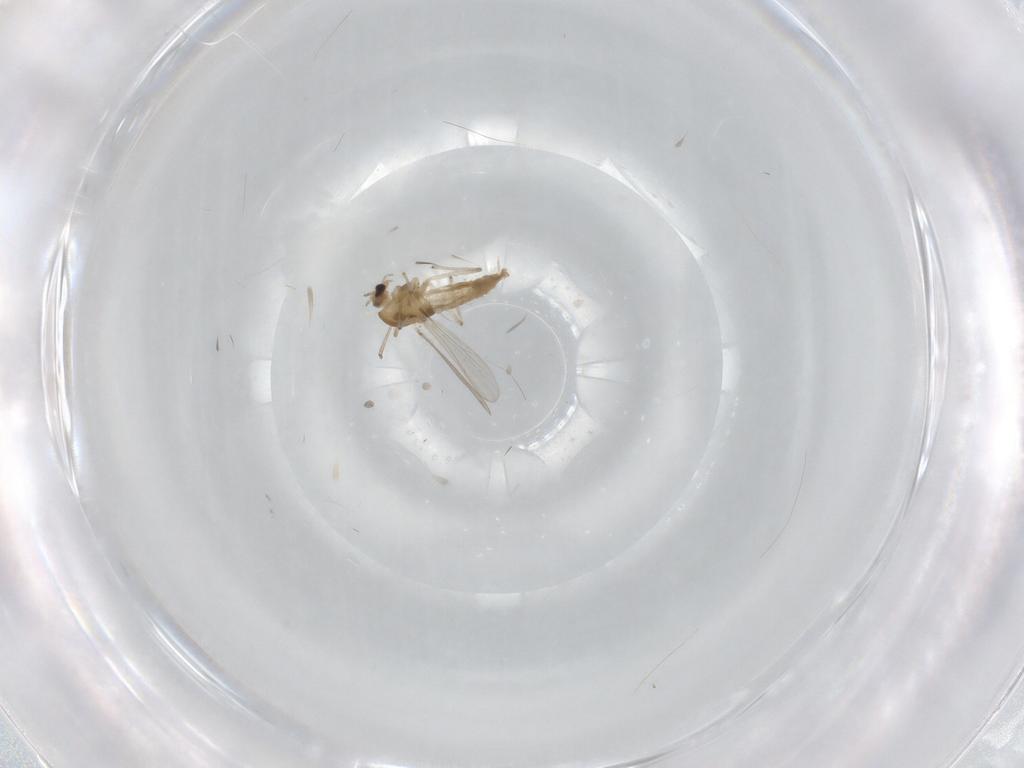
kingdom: Animalia
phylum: Arthropoda
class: Insecta
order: Diptera
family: Chironomidae
